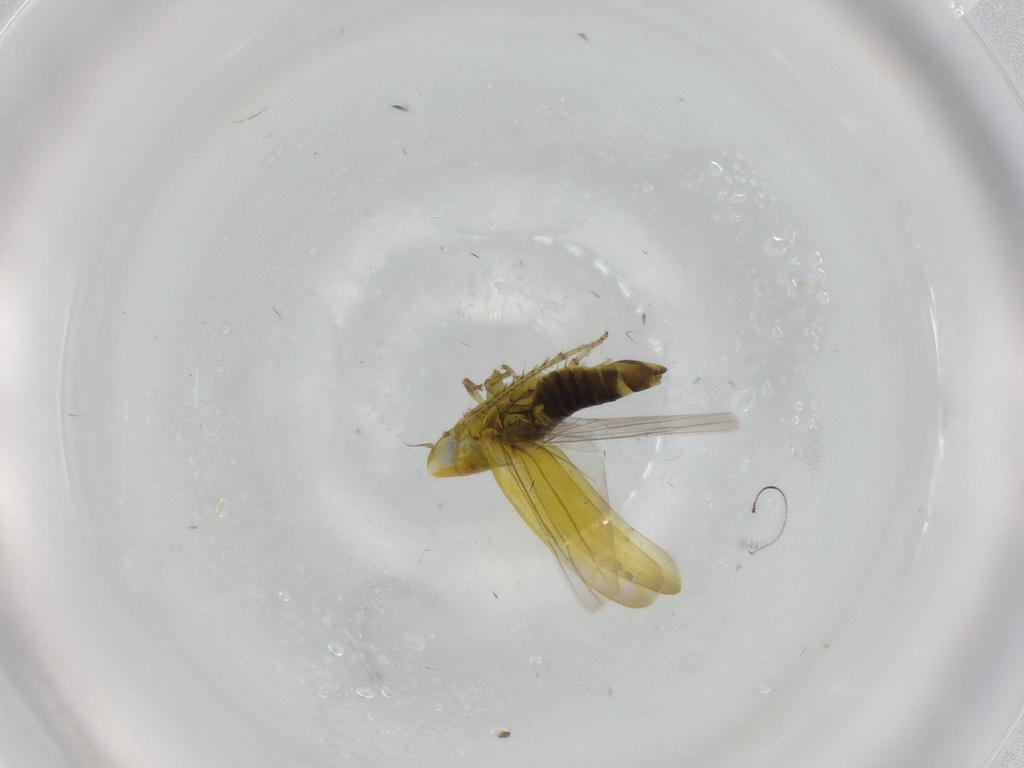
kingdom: Animalia
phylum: Arthropoda
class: Insecta
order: Hemiptera
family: Cicadellidae
